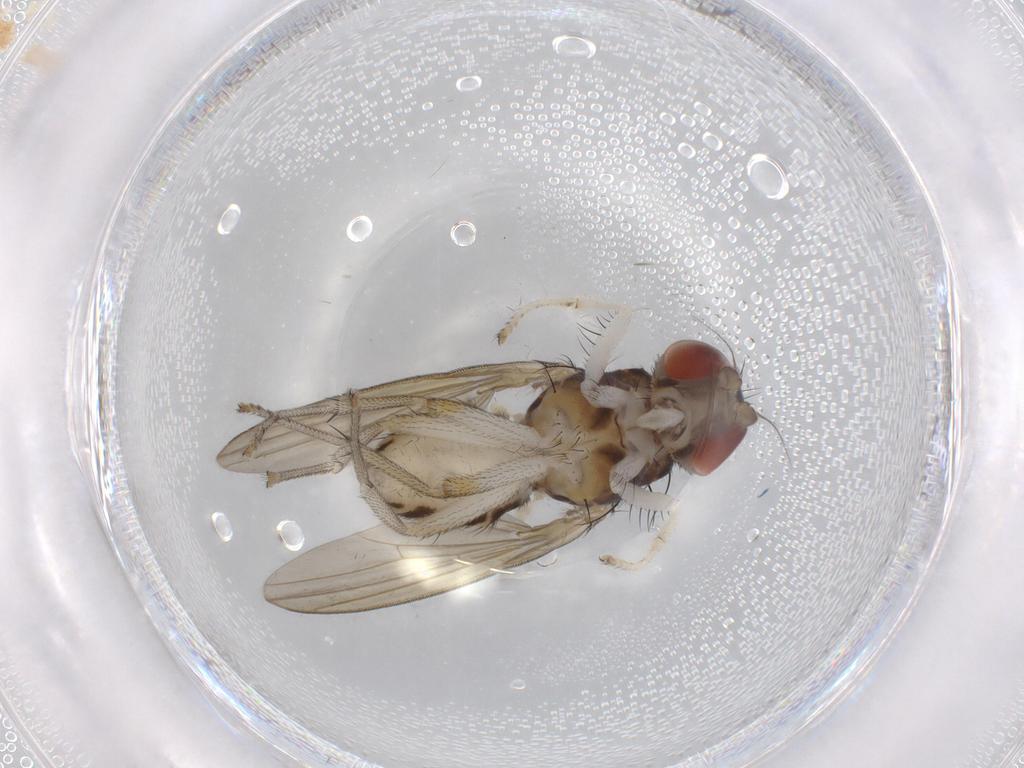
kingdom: Animalia
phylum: Arthropoda
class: Insecta
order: Diptera
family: Lauxaniidae
